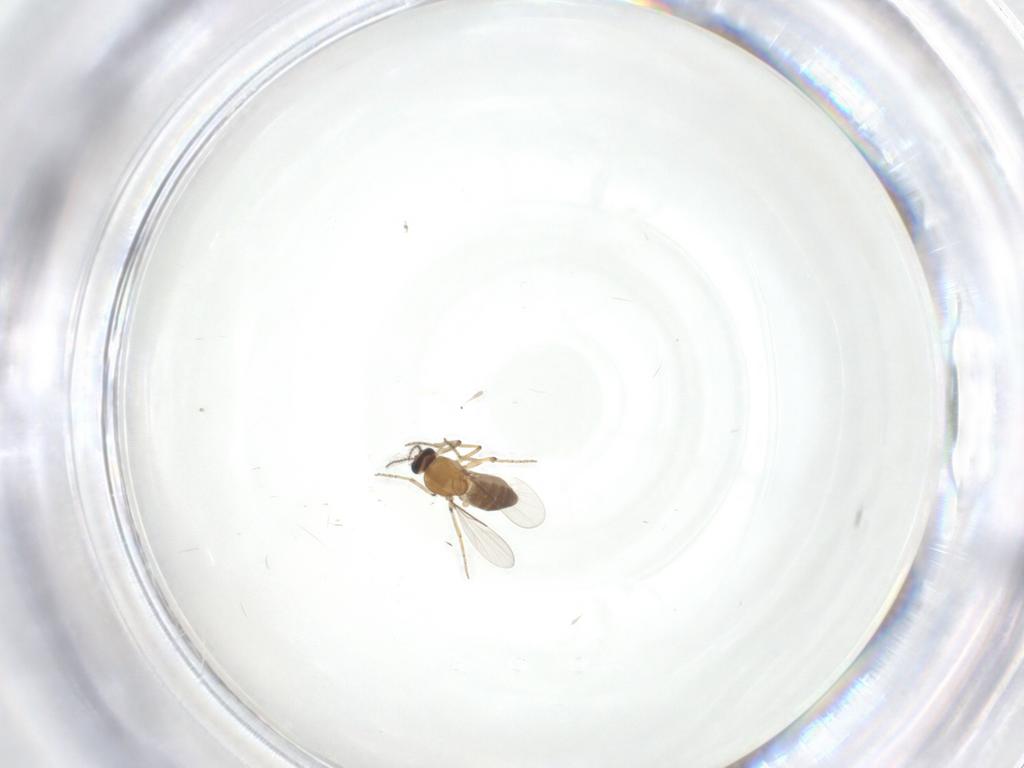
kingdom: Animalia
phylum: Arthropoda
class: Insecta
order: Diptera
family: Ceratopogonidae
